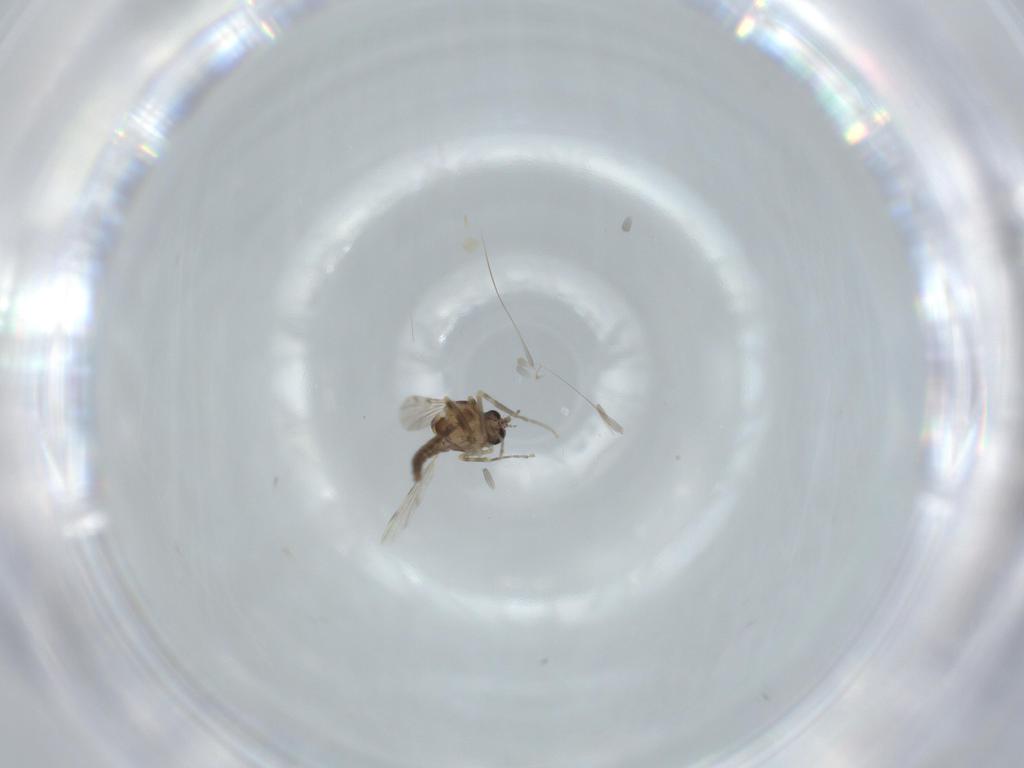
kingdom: Animalia
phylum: Arthropoda
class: Insecta
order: Diptera
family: Ceratopogonidae
